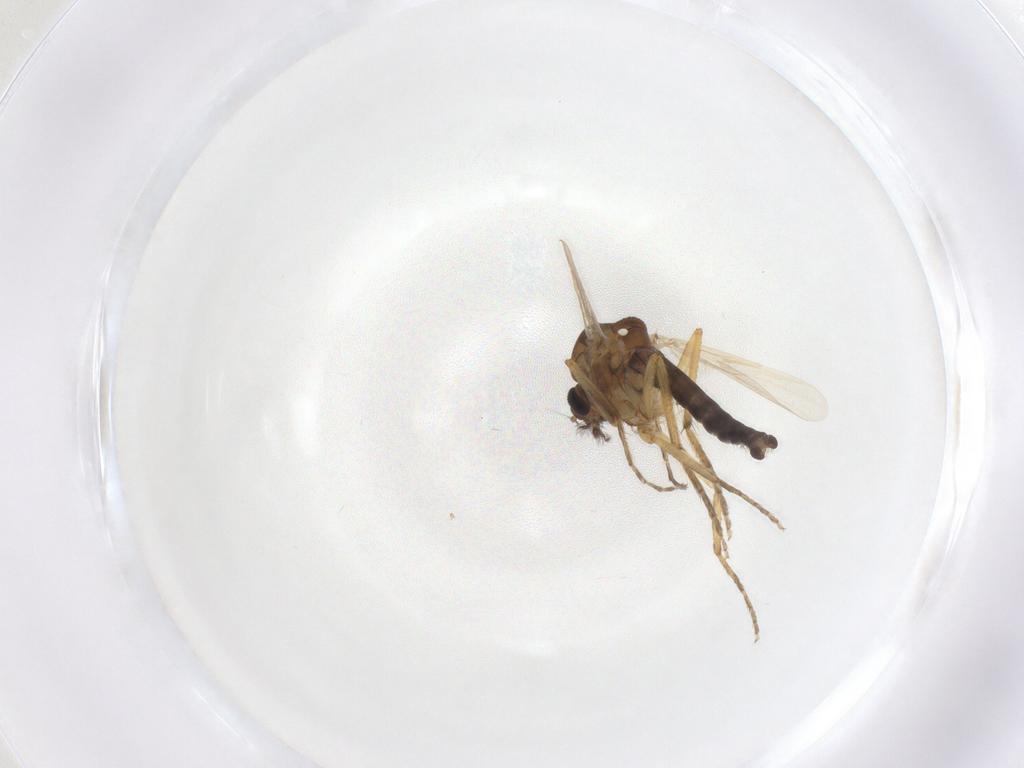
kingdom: Animalia
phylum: Arthropoda
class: Insecta
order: Diptera
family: Ceratopogonidae
